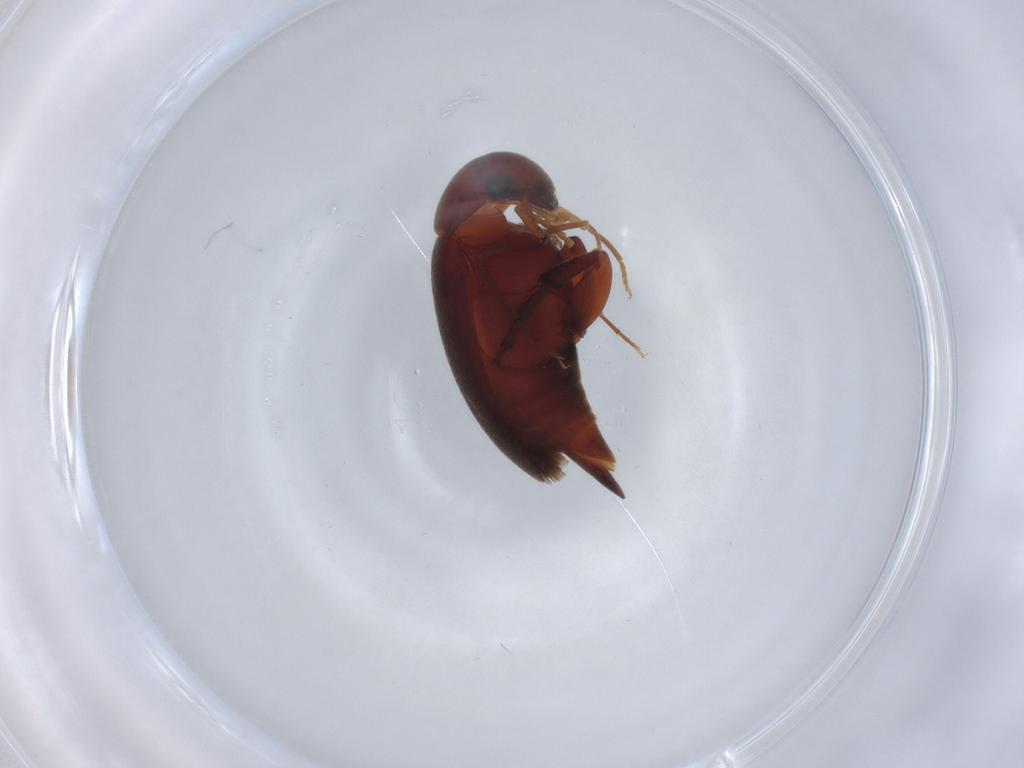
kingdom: Animalia
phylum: Arthropoda
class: Insecta
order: Coleoptera
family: Mordellidae
